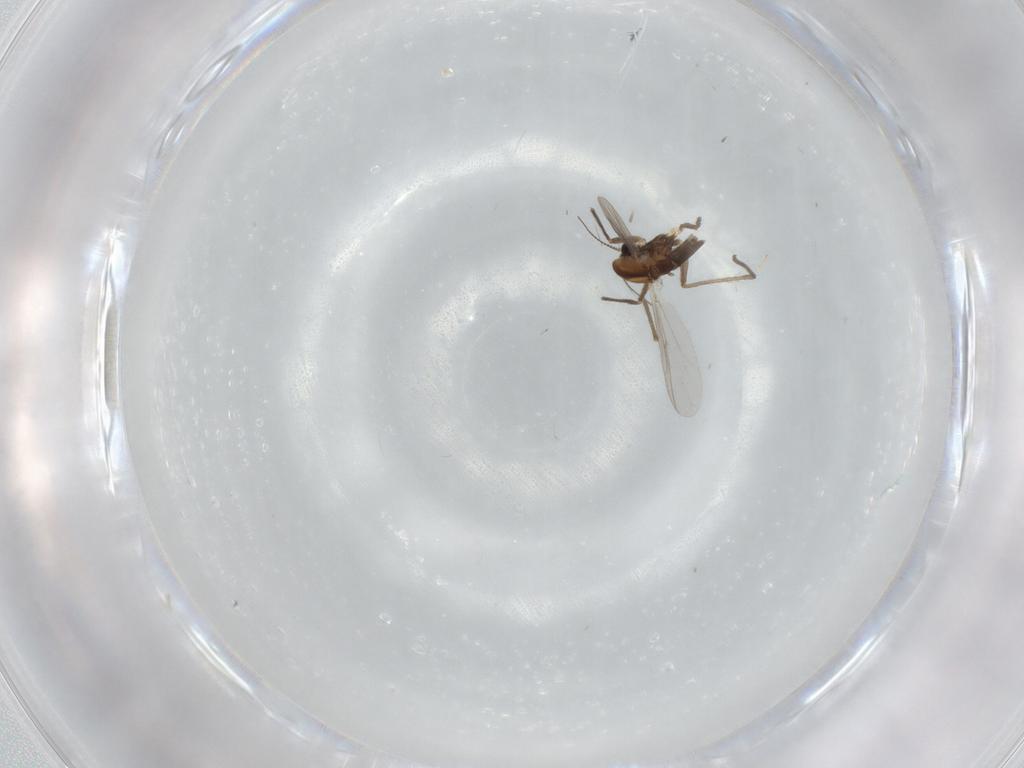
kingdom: Animalia
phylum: Arthropoda
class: Insecta
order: Diptera
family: Chironomidae
